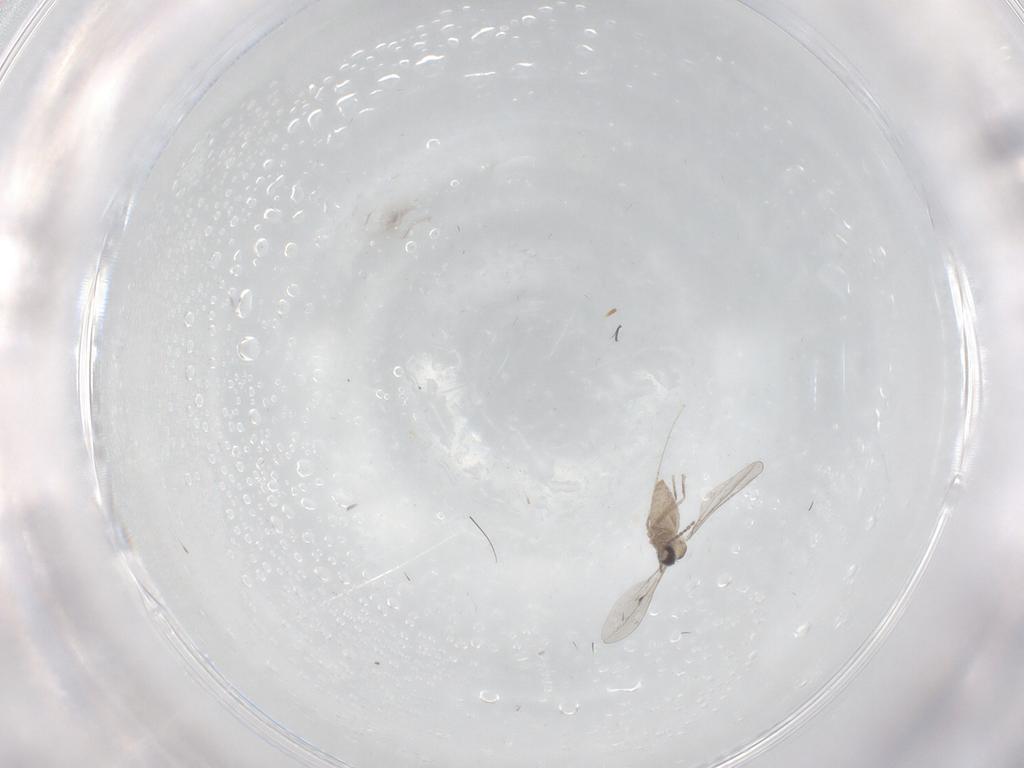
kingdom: Animalia
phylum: Arthropoda
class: Insecta
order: Diptera
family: Cecidomyiidae
